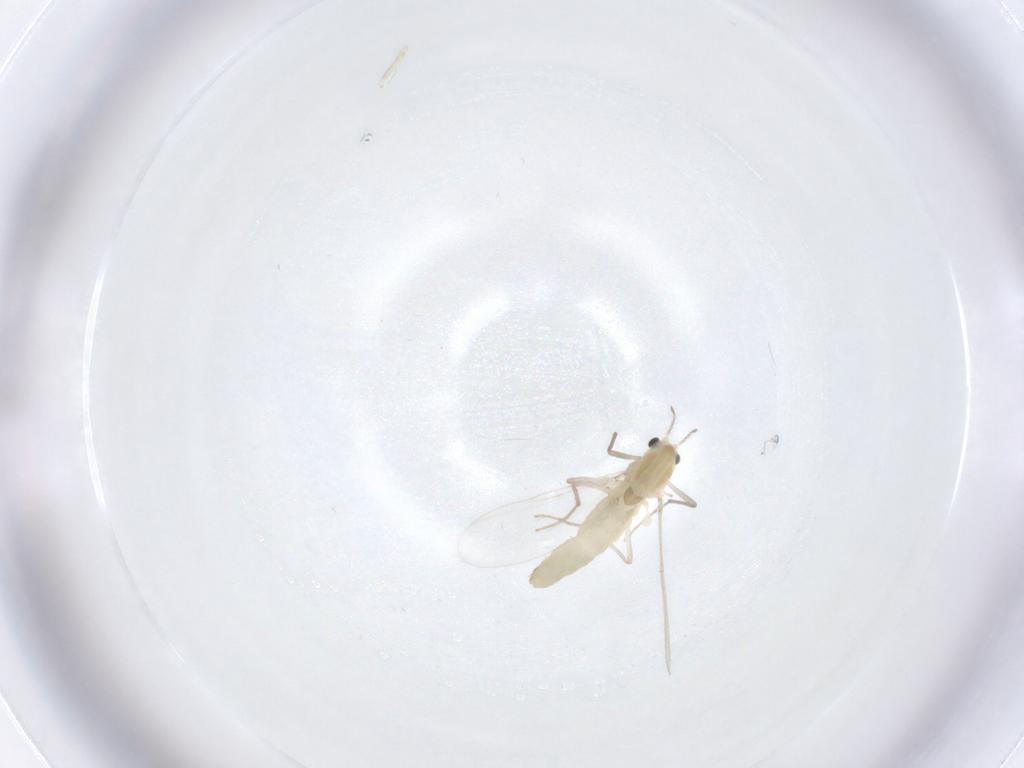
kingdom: Animalia
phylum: Arthropoda
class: Insecta
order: Diptera
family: Chironomidae
